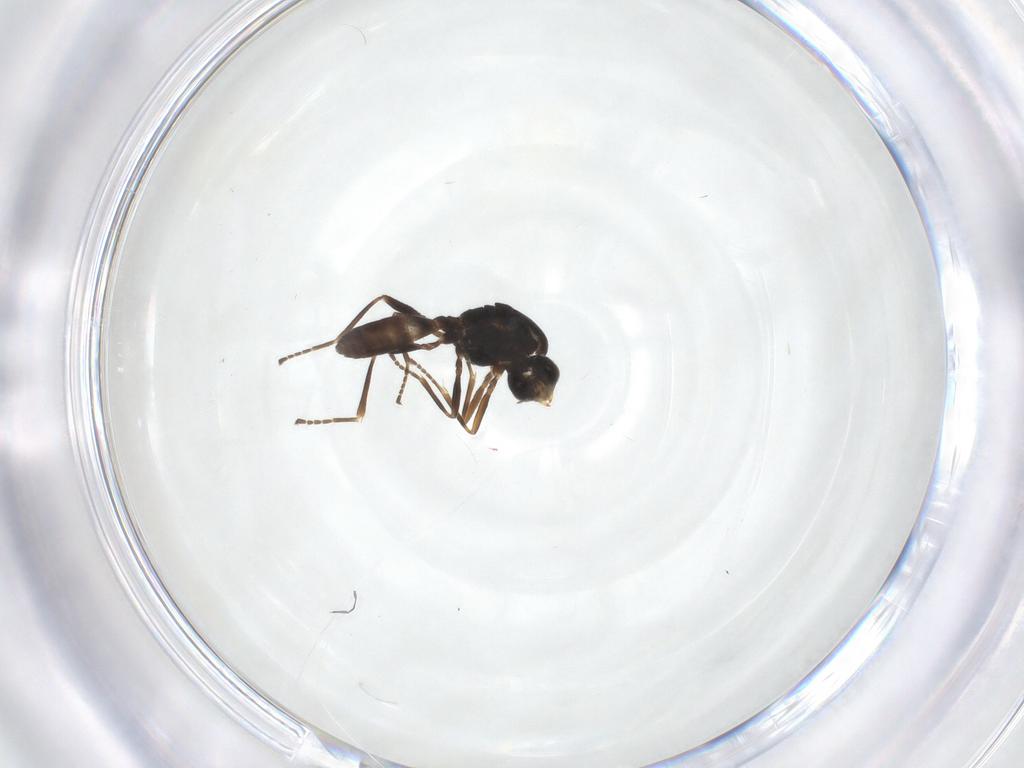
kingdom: Animalia
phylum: Arthropoda
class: Insecta
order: Hymenoptera
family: Braconidae
